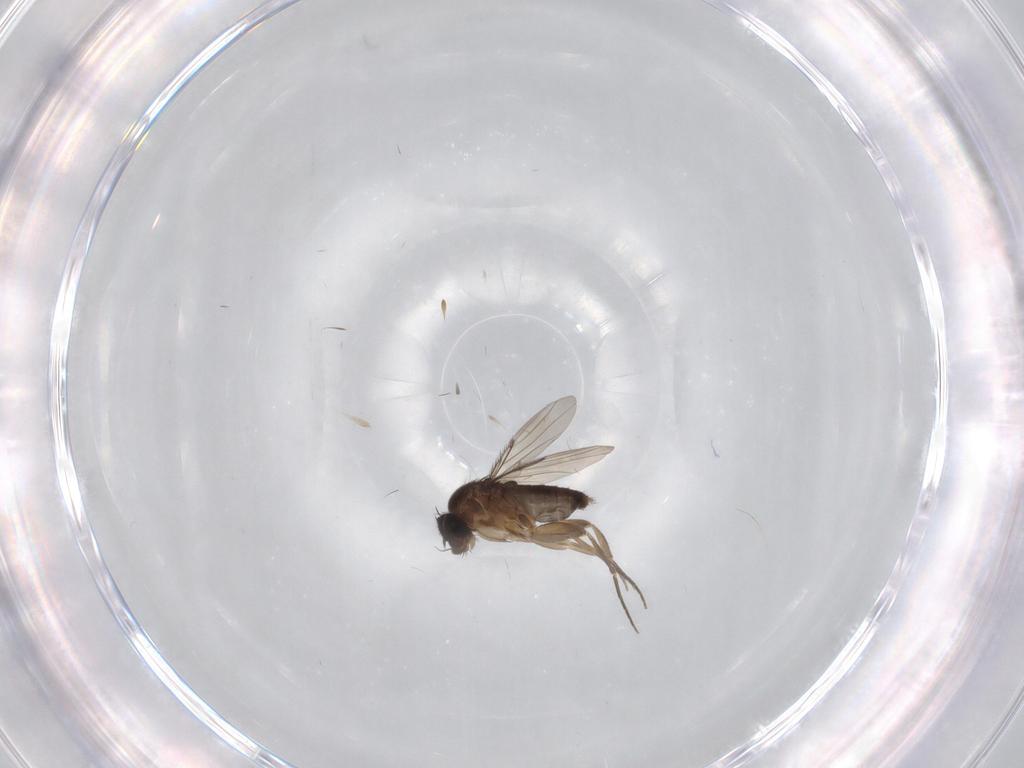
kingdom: Animalia
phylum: Arthropoda
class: Insecta
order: Diptera
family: Phoridae
